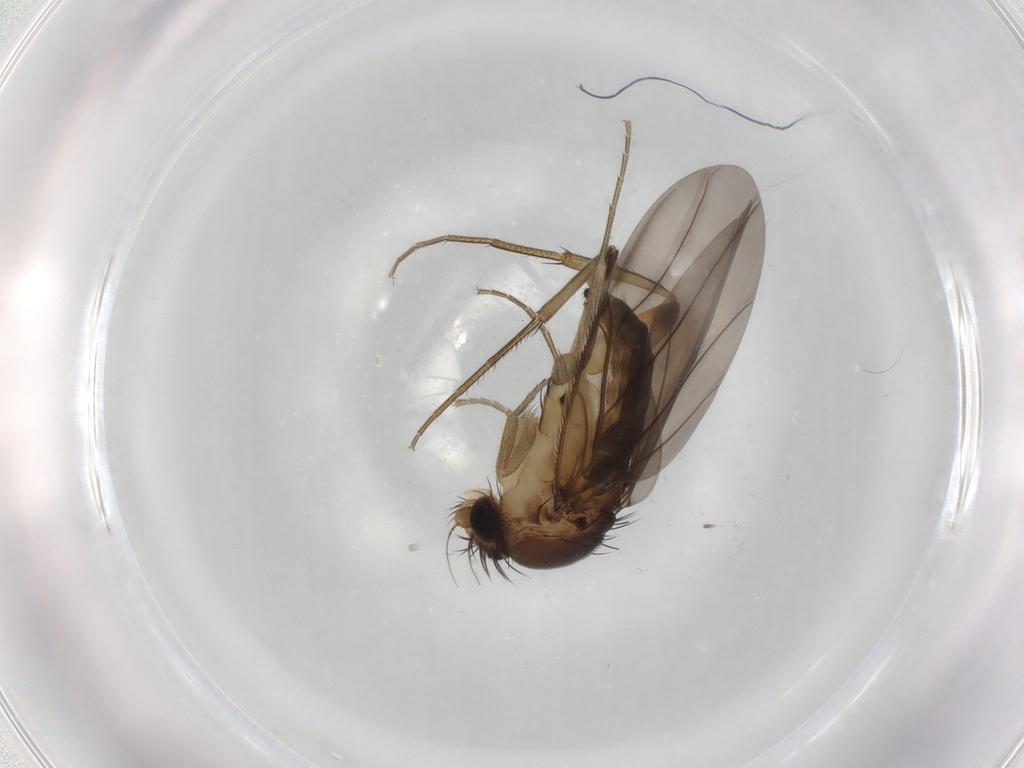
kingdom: Animalia
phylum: Arthropoda
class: Insecta
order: Diptera
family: Phoridae
